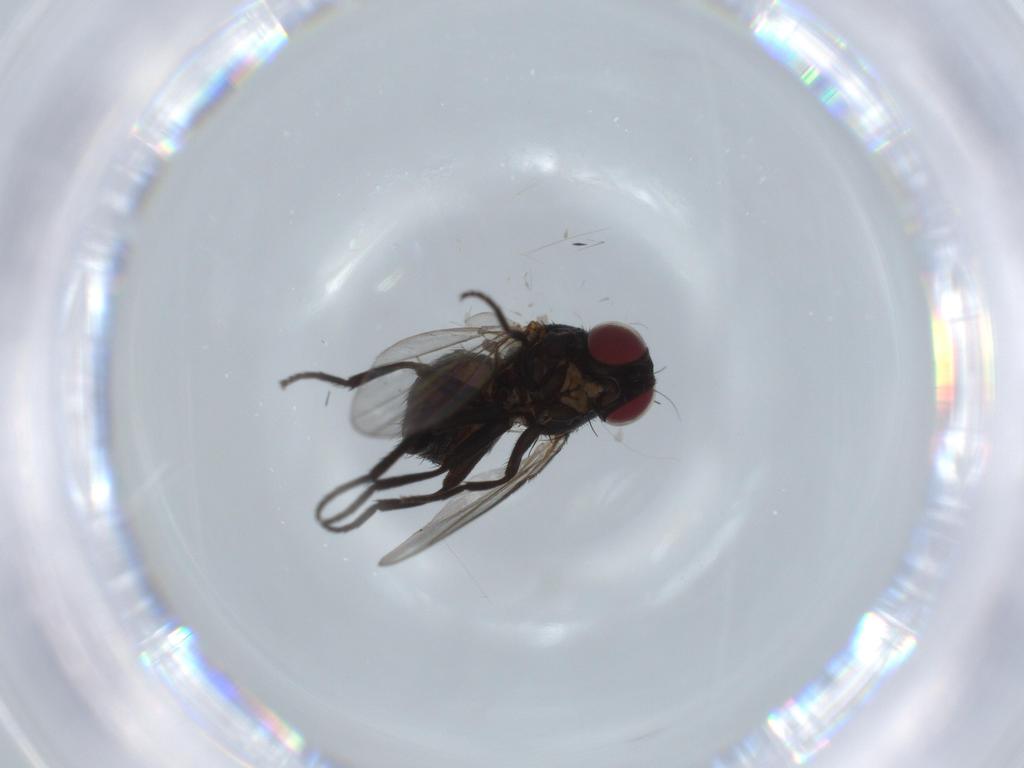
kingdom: Animalia
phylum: Arthropoda
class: Insecta
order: Diptera
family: Agromyzidae
